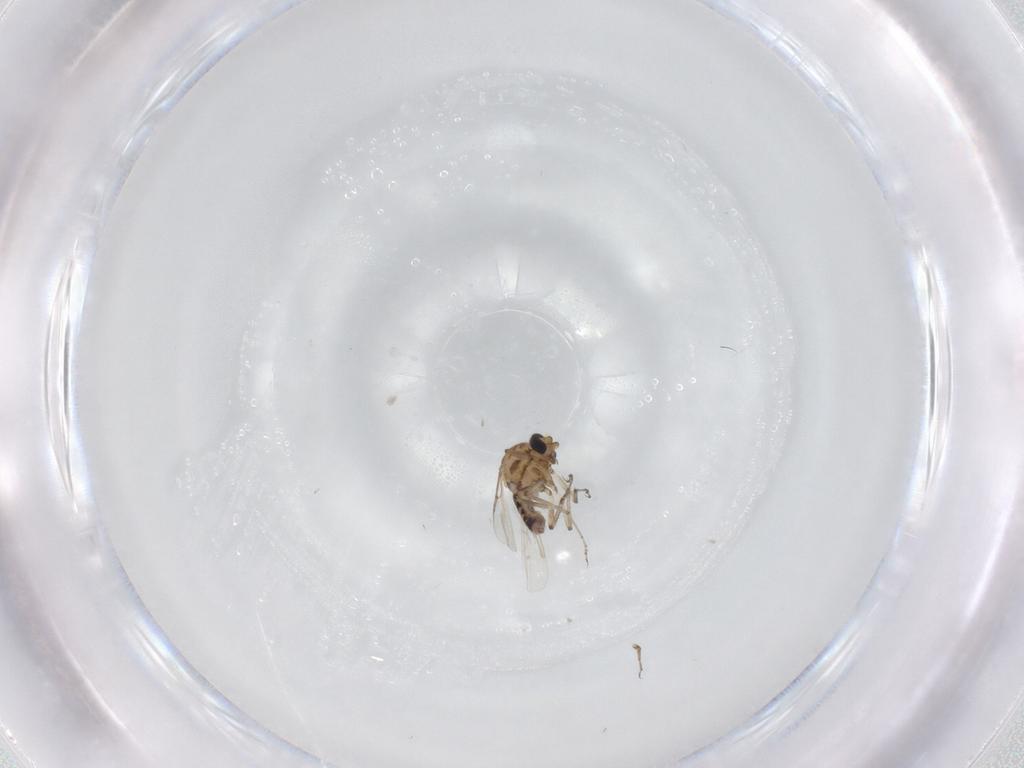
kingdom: Animalia
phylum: Arthropoda
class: Insecta
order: Diptera
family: Ceratopogonidae
